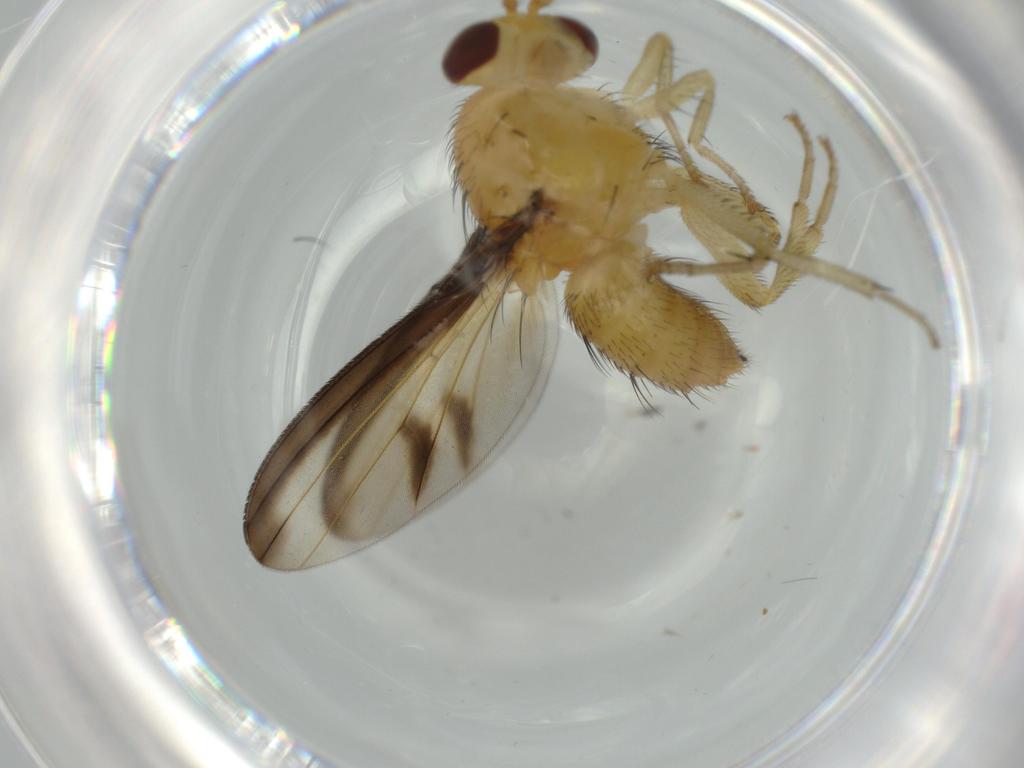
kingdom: Animalia
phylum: Arthropoda
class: Insecta
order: Diptera
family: Lauxaniidae
